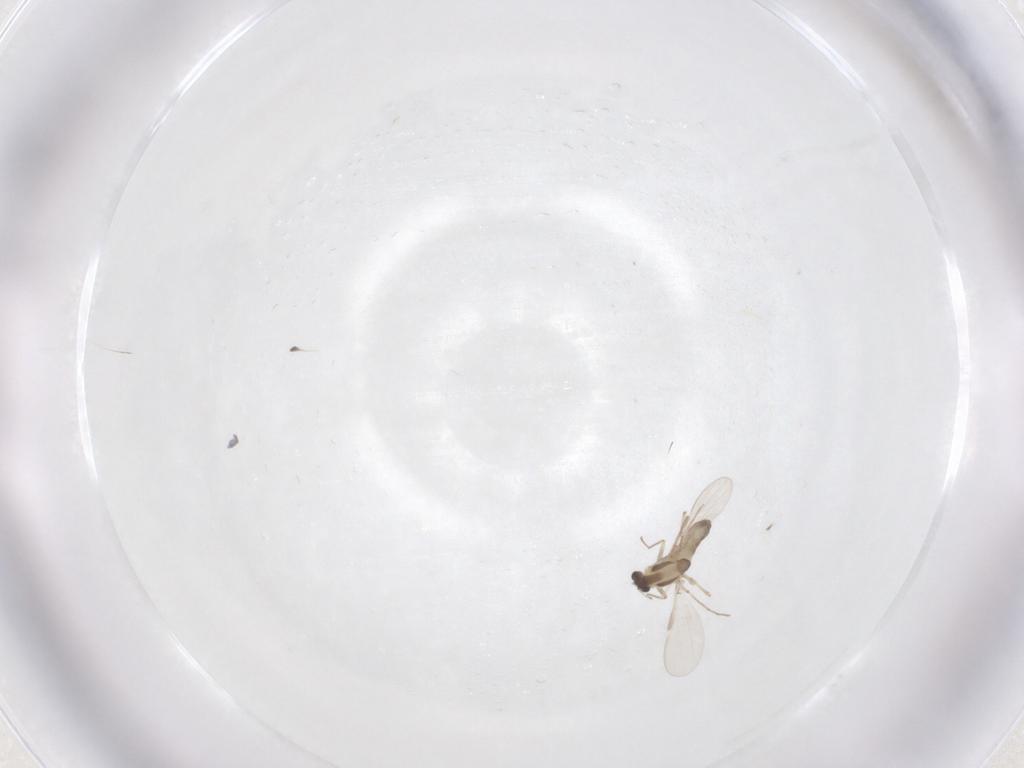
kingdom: Animalia
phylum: Arthropoda
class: Insecta
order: Diptera
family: Chironomidae
